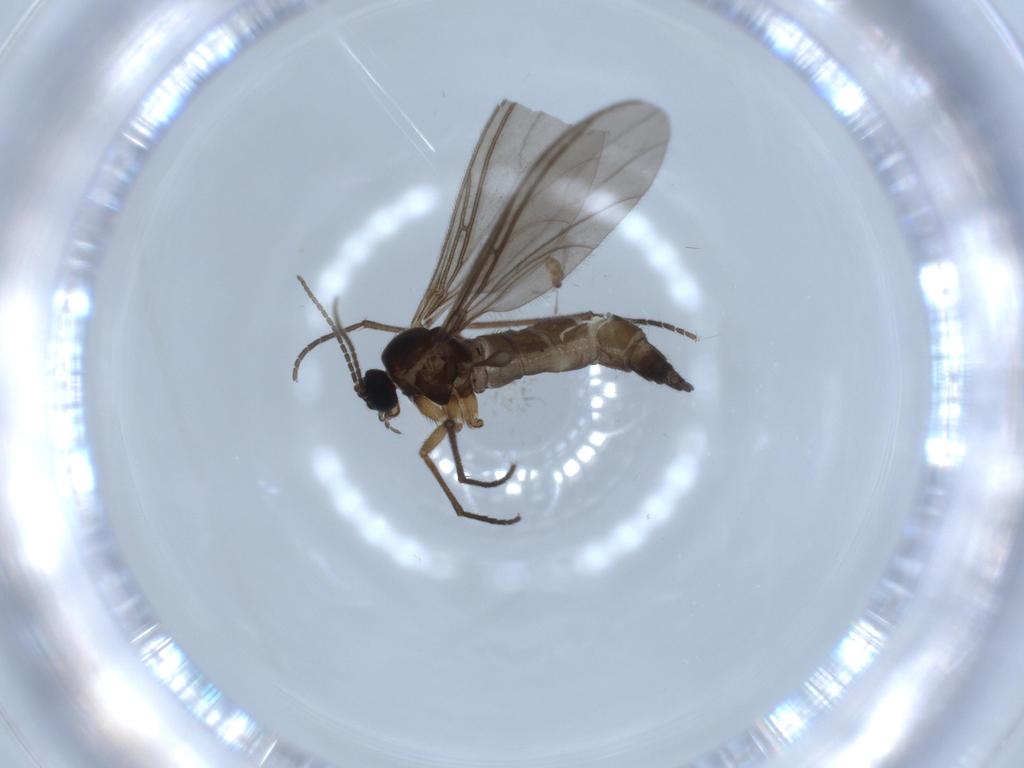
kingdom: Animalia
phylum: Arthropoda
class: Insecta
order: Diptera
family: Sciaridae
